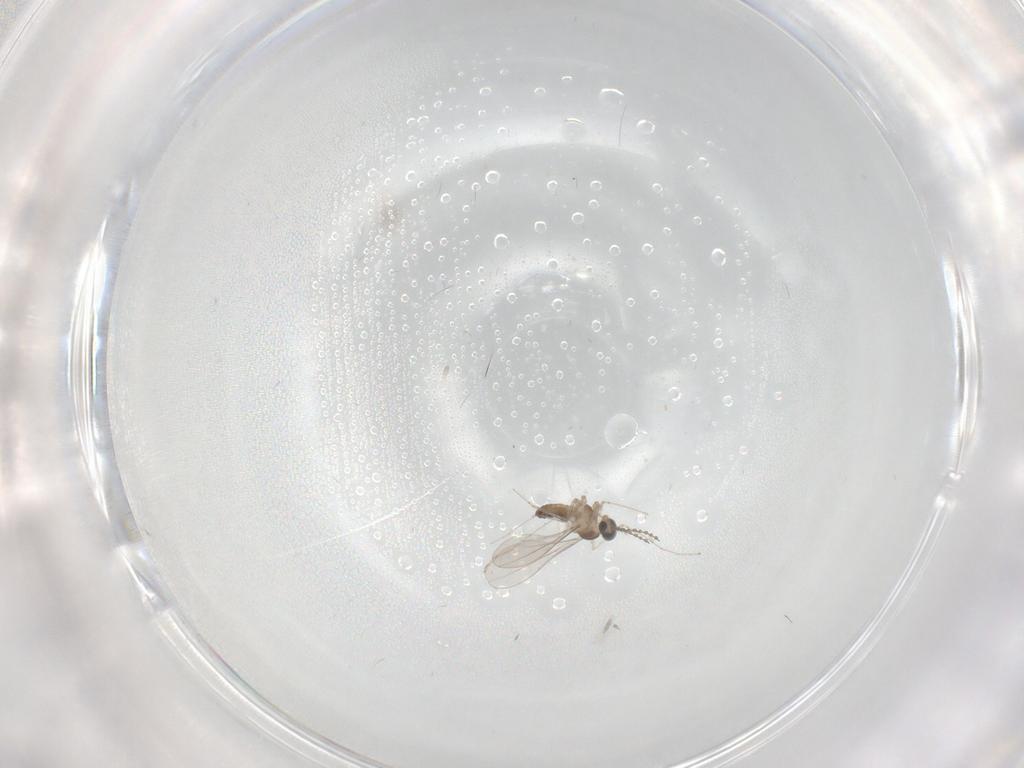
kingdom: Animalia
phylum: Arthropoda
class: Insecta
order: Diptera
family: Cecidomyiidae
